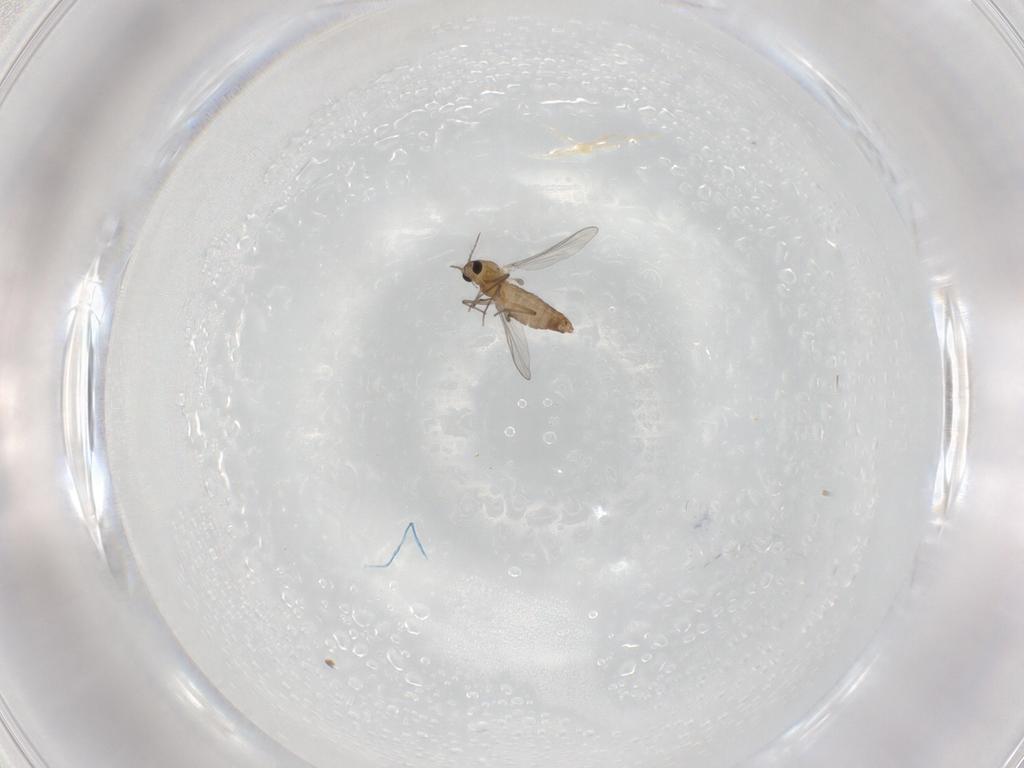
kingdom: Animalia
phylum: Arthropoda
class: Insecta
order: Diptera
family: Chironomidae
